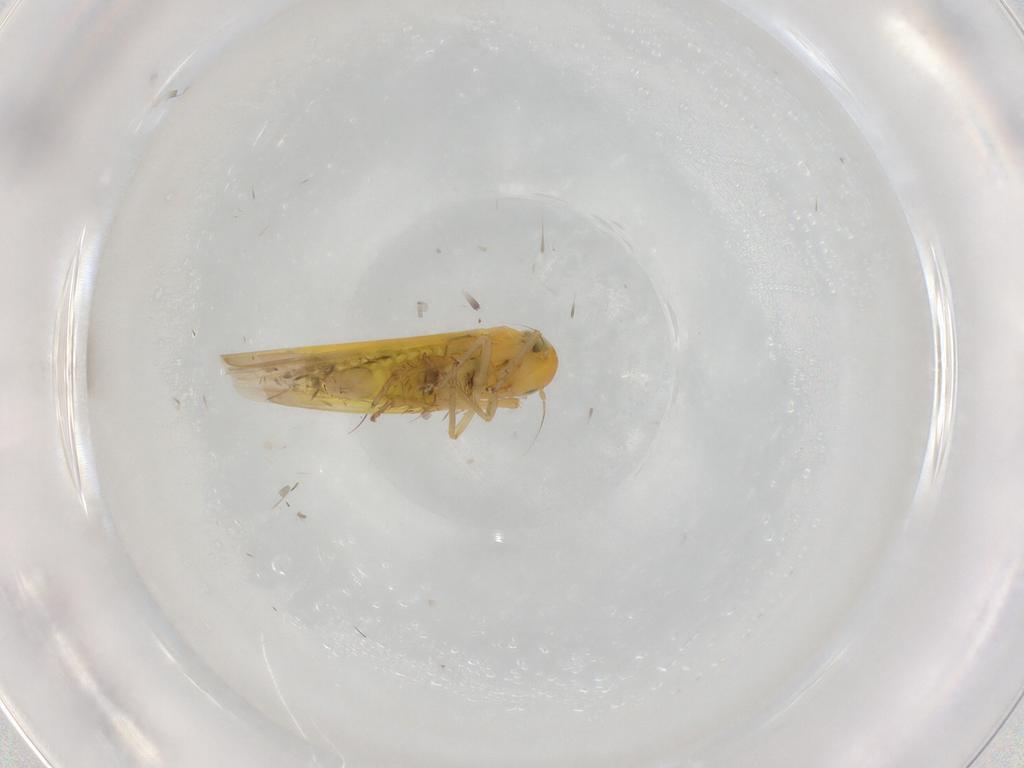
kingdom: Animalia
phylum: Arthropoda
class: Insecta
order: Hemiptera
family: Cicadellidae
